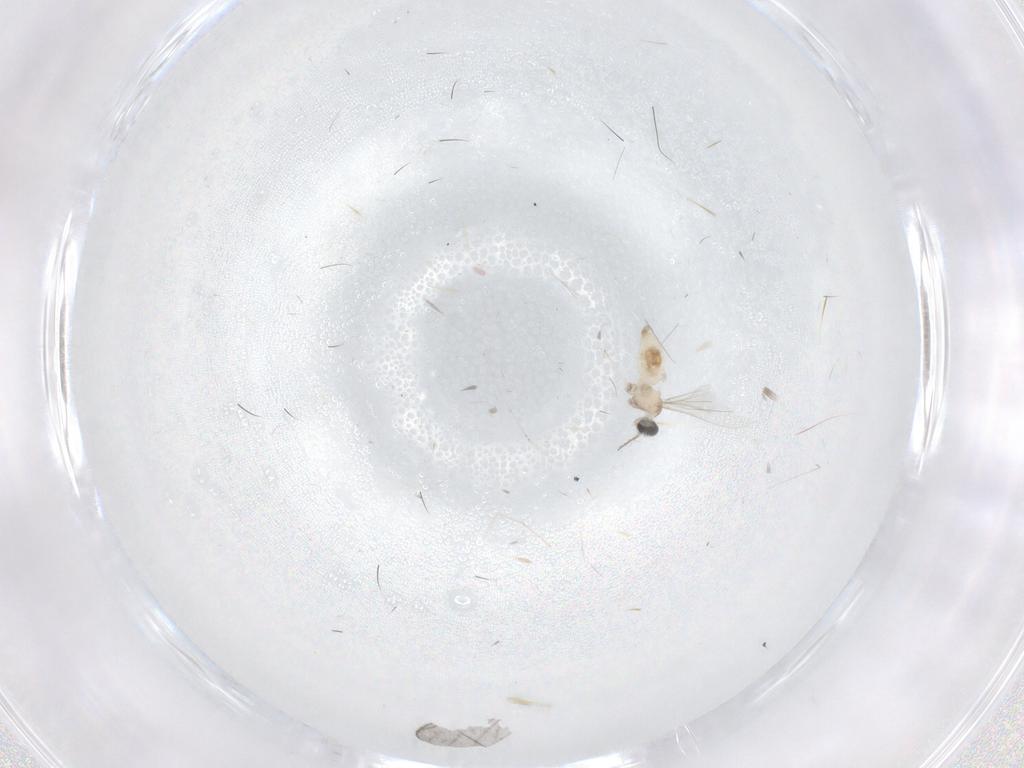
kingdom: Animalia
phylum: Arthropoda
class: Insecta
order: Diptera
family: Cecidomyiidae
